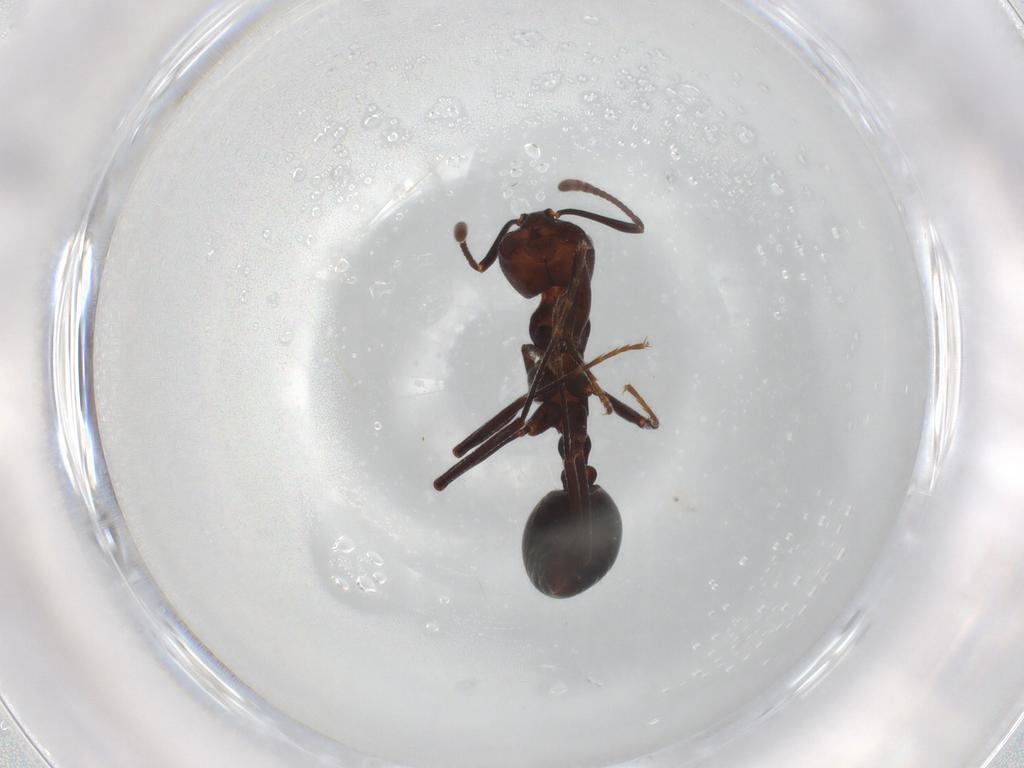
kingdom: Animalia
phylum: Arthropoda
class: Insecta
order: Hymenoptera
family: Formicidae
